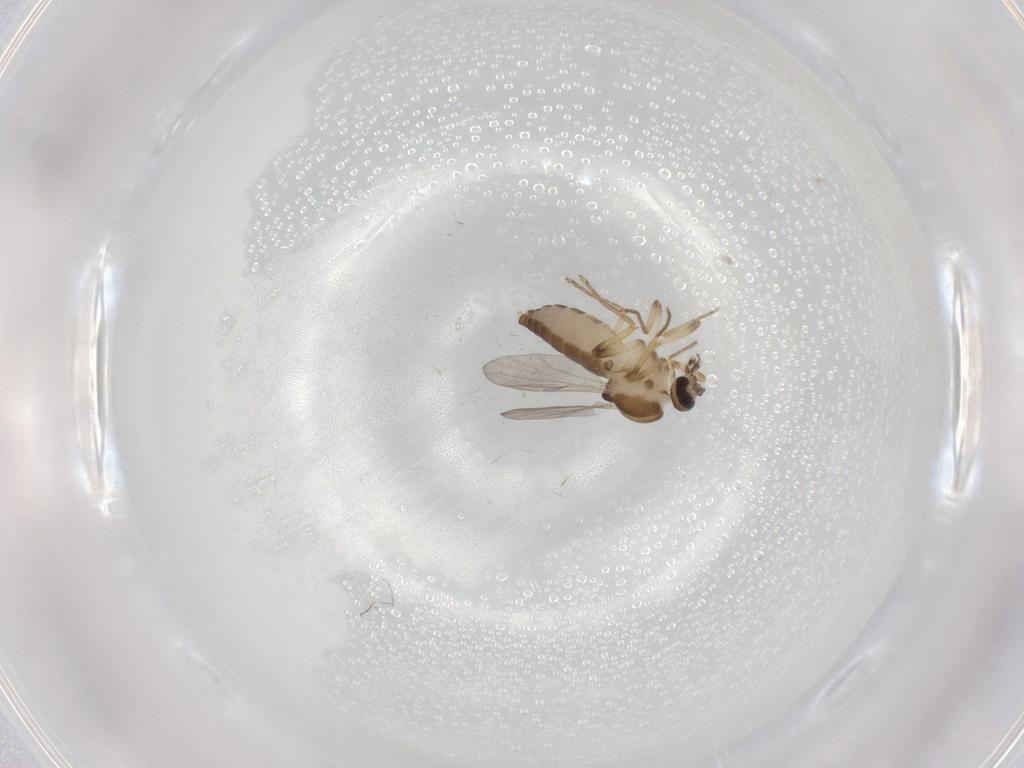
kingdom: Animalia
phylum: Arthropoda
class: Insecta
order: Diptera
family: Ceratopogonidae
